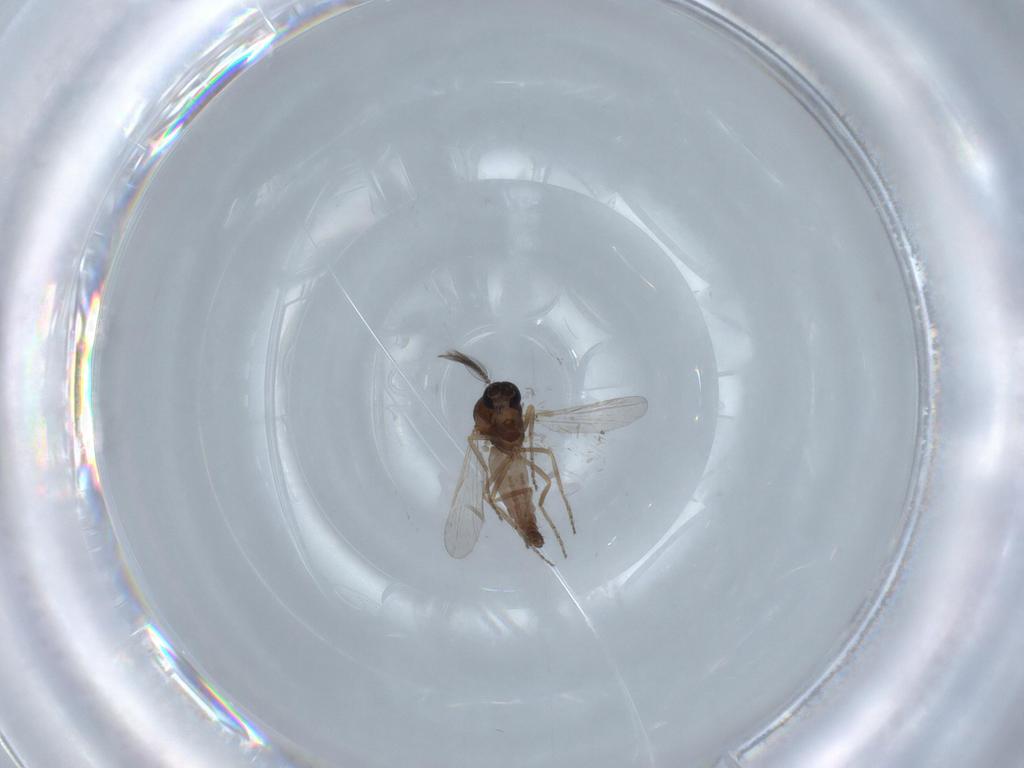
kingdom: Animalia
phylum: Arthropoda
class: Insecta
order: Diptera
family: Ceratopogonidae
